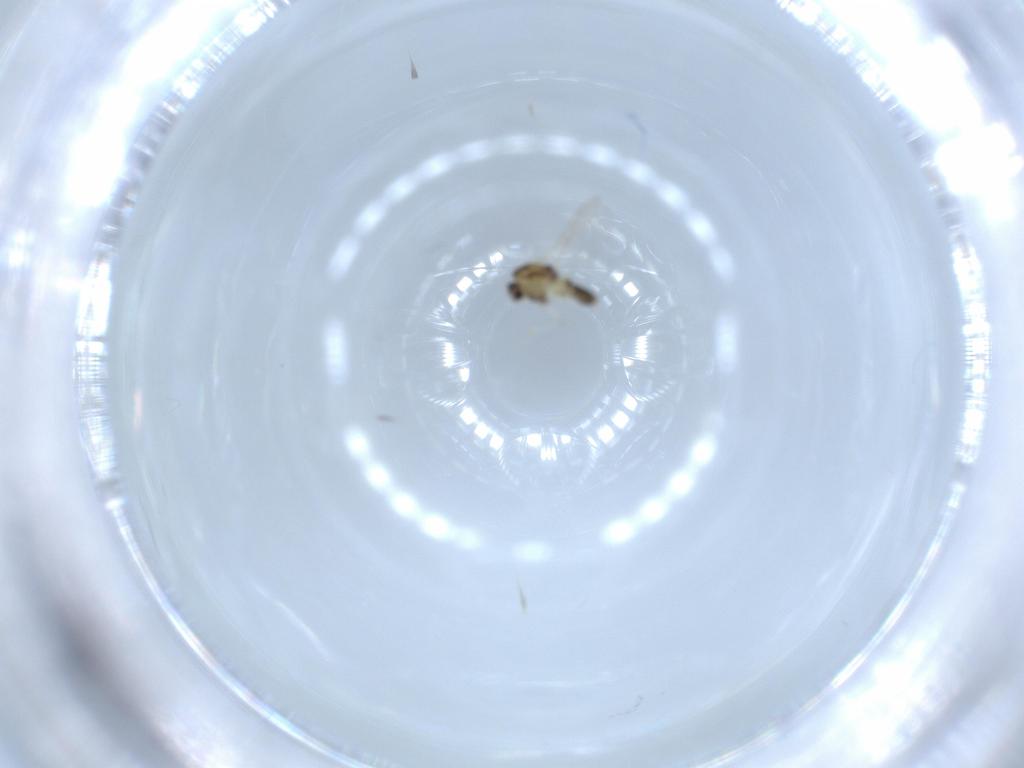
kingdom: Animalia
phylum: Arthropoda
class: Insecta
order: Diptera
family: Chironomidae
